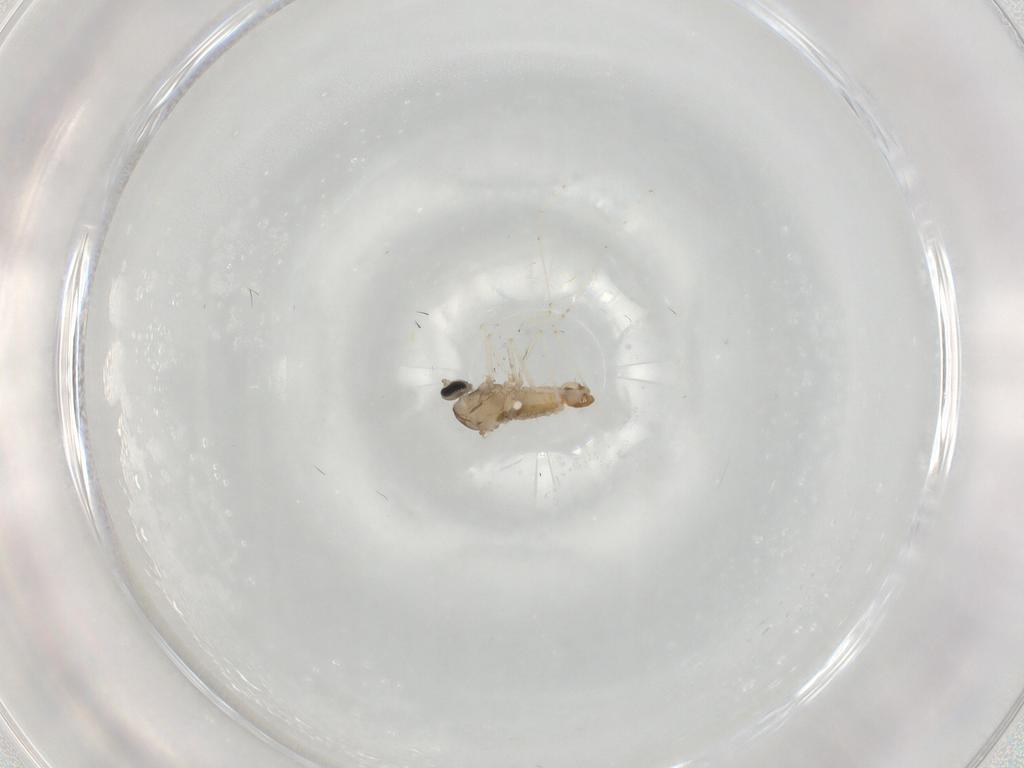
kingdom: Animalia
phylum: Arthropoda
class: Insecta
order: Diptera
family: Cecidomyiidae
